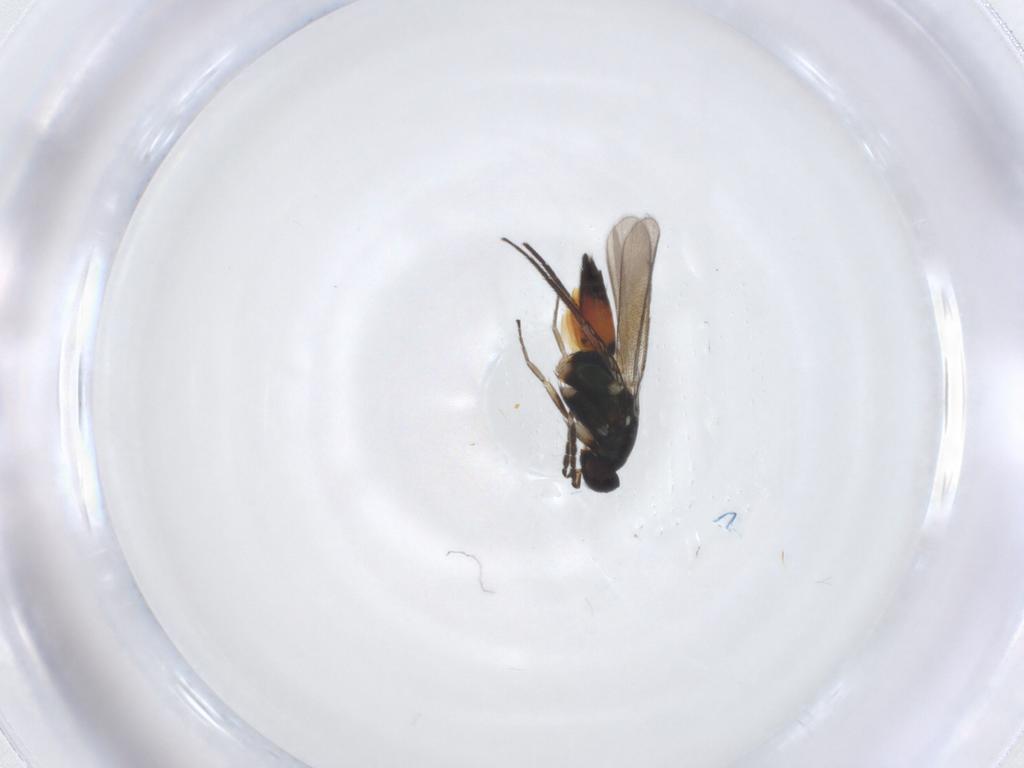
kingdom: Animalia
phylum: Arthropoda
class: Insecta
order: Hymenoptera
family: Eulophidae
